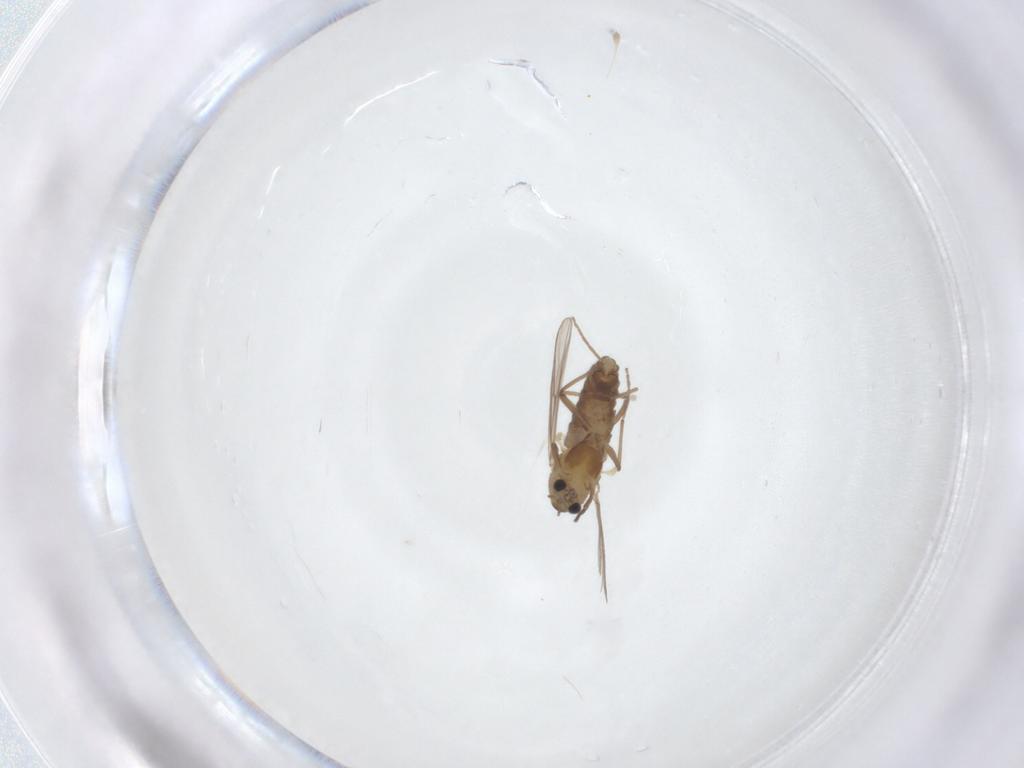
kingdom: Animalia
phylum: Arthropoda
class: Insecta
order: Diptera
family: Chironomidae
